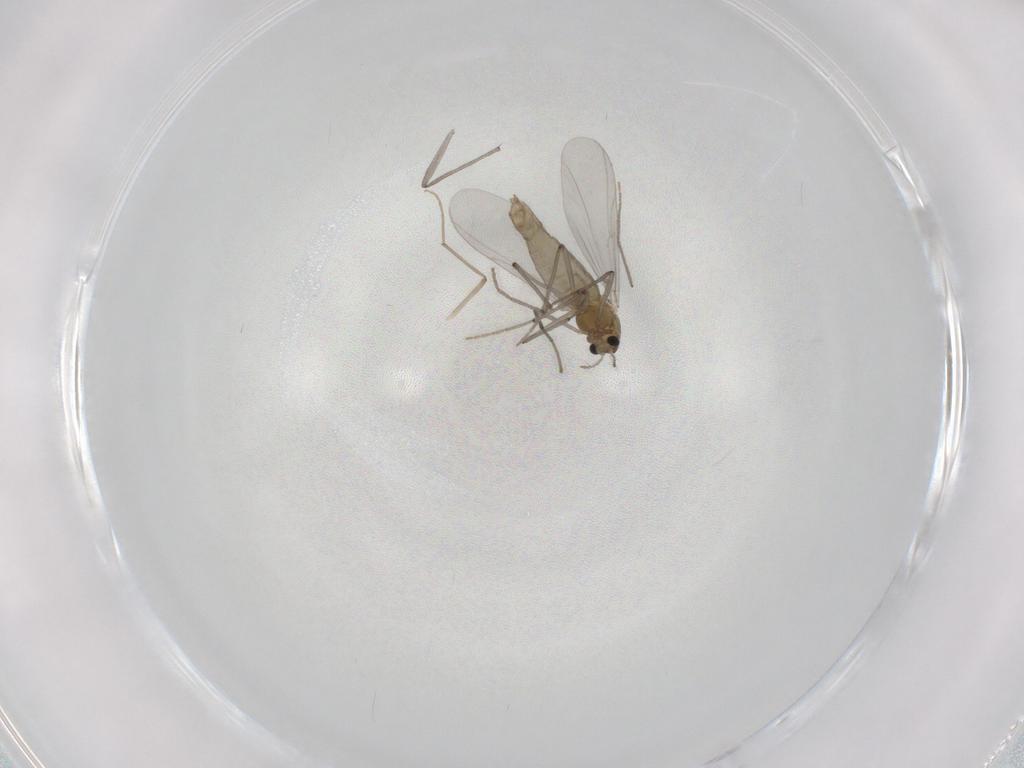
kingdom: Animalia
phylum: Arthropoda
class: Insecta
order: Diptera
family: Chironomidae
